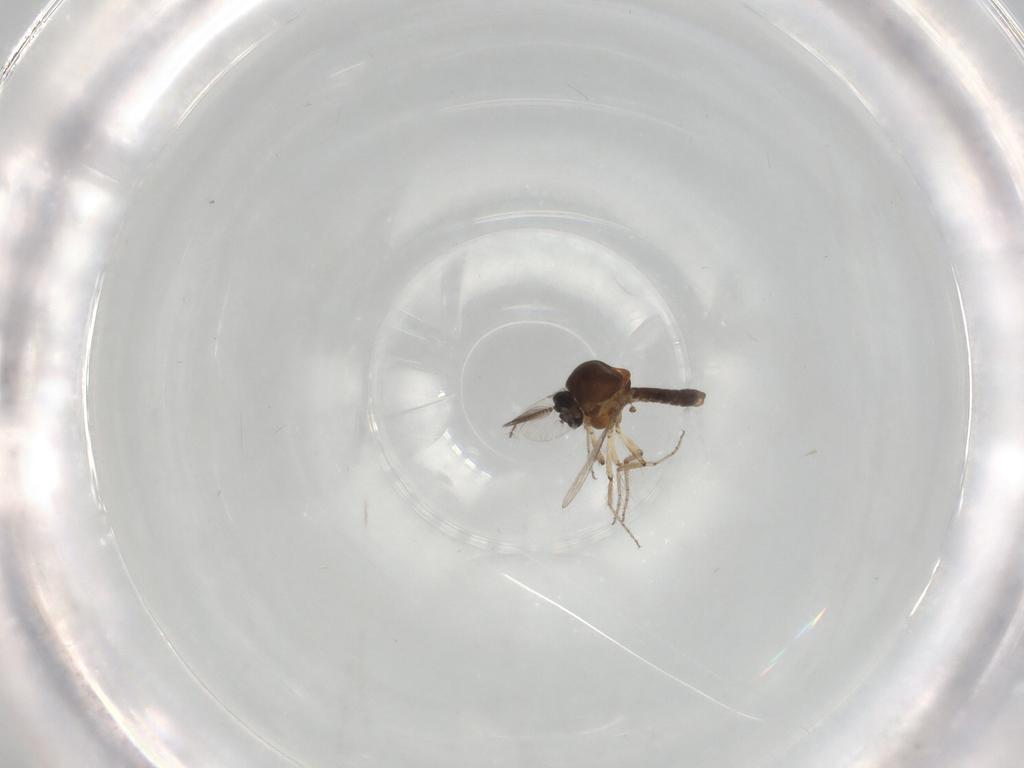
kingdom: Animalia
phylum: Arthropoda
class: Insecta
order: Diptera
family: Ceratopogonidae
